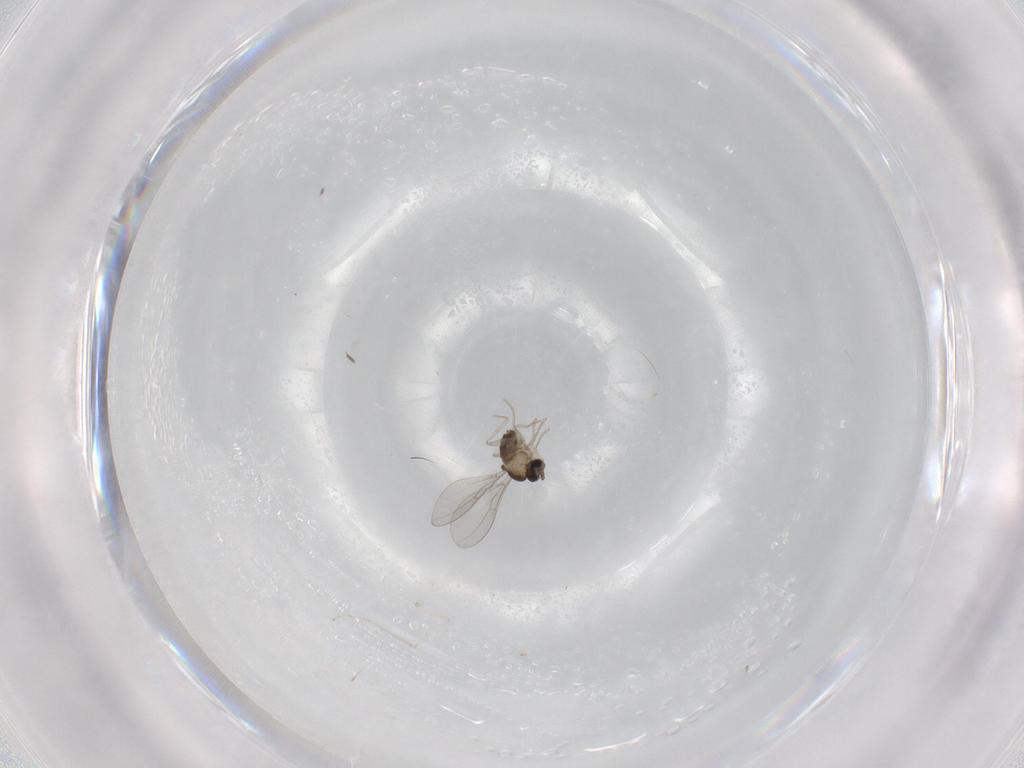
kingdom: Animalia
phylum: Arthropoda
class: Insecta
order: Diptera
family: Cecidomyiidae
